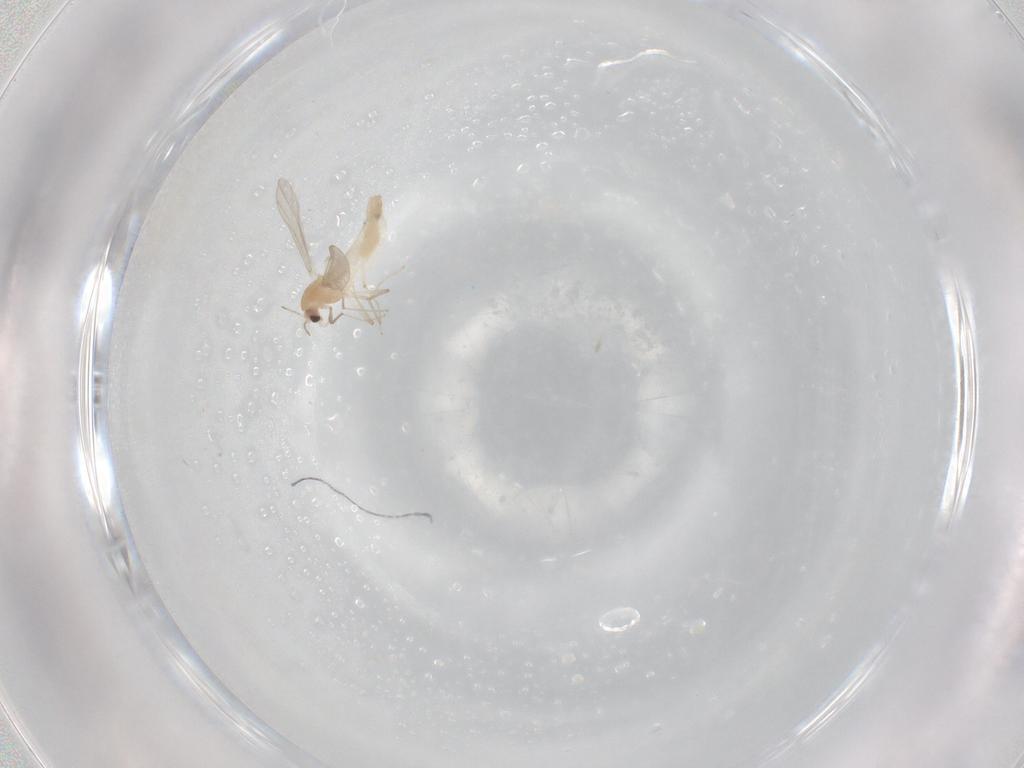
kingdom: Animalia
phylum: Arthropoda
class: Insecta
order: Diptera
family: Chironomidae
